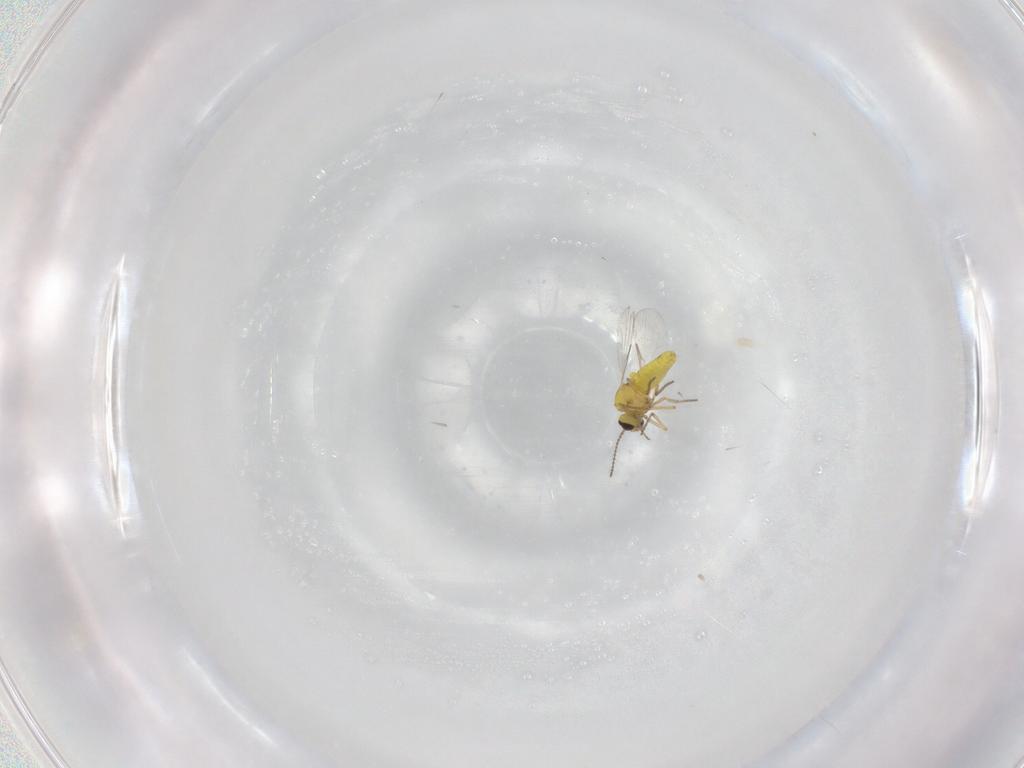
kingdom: Animalia
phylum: Arthropoda
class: Insecta
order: Diptera
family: Ceratopogonidae
